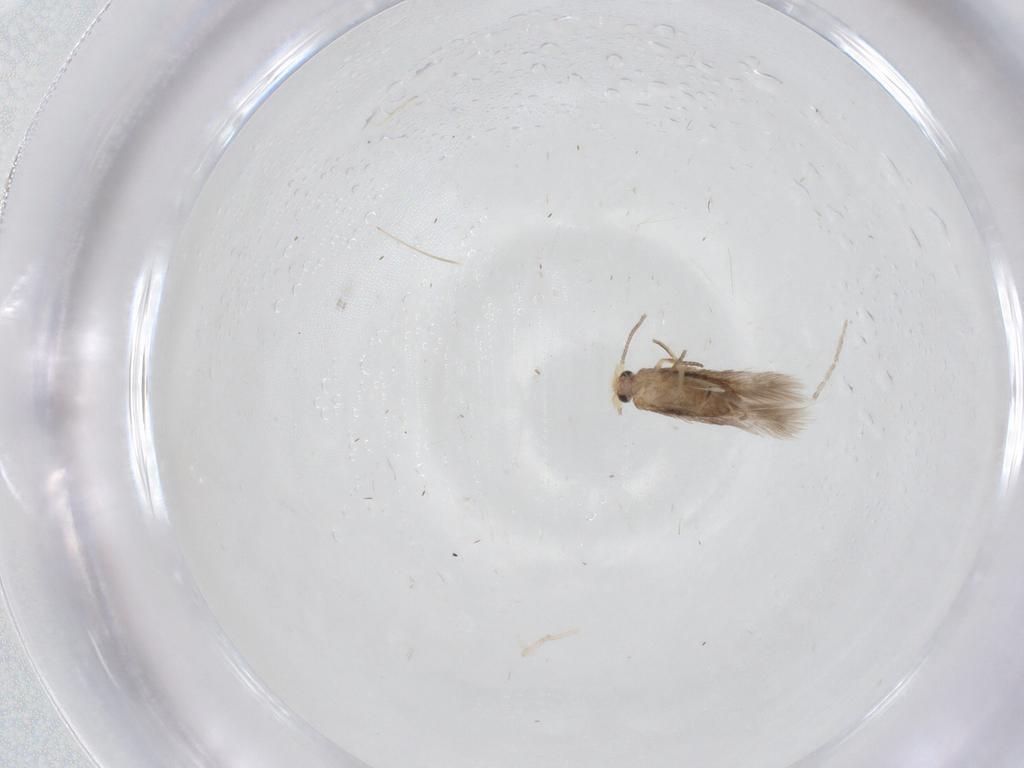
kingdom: Animalia
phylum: Arthropoda
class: Insecta
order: Lepidoptera
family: Nepticulidae
